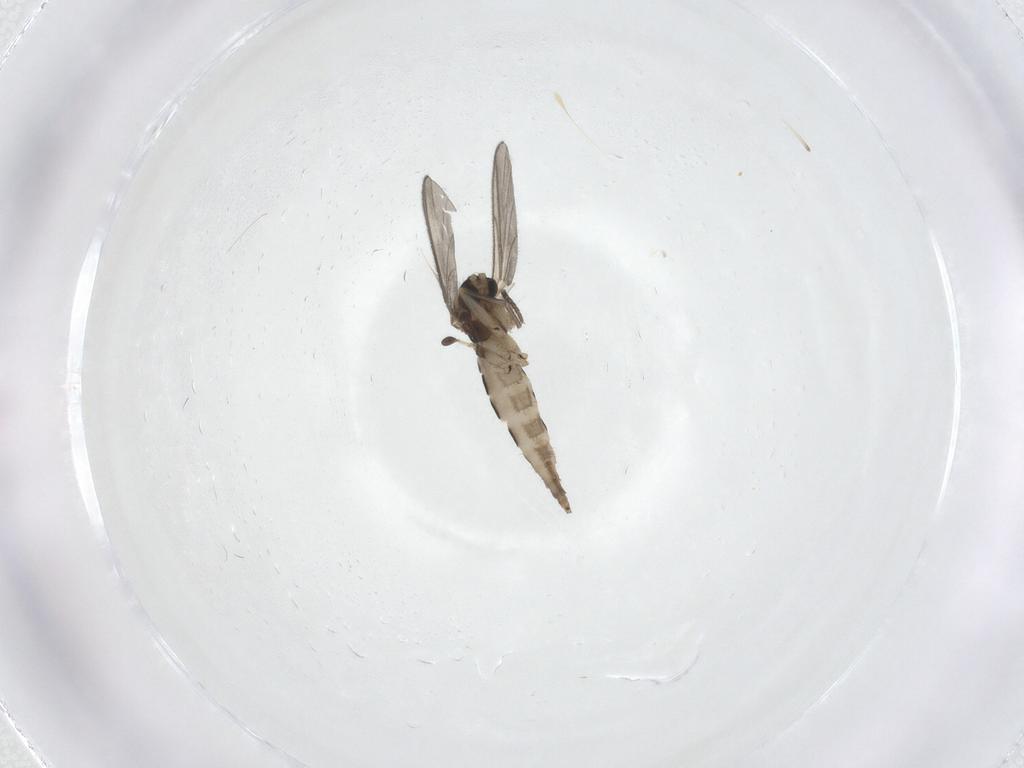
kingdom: Animalia
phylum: Arthropoda
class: Insecta
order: Diptera
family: Sciaridae
